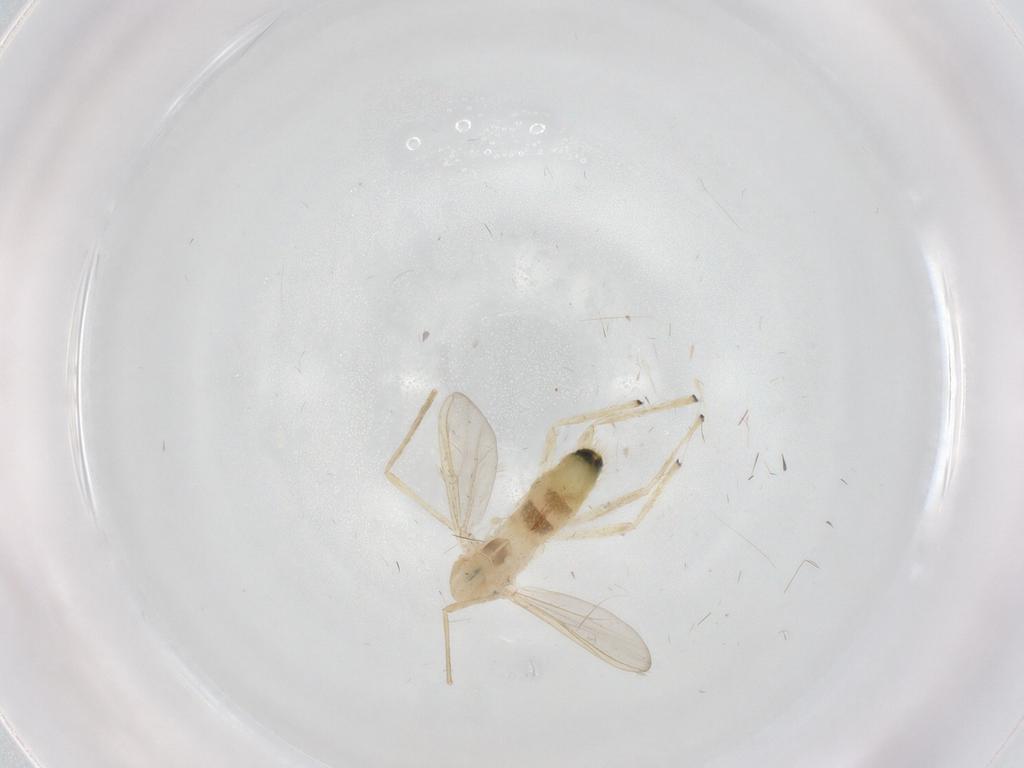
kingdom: Animalia
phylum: Arthropoda
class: Insecta
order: Diptera
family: Chironomidae
